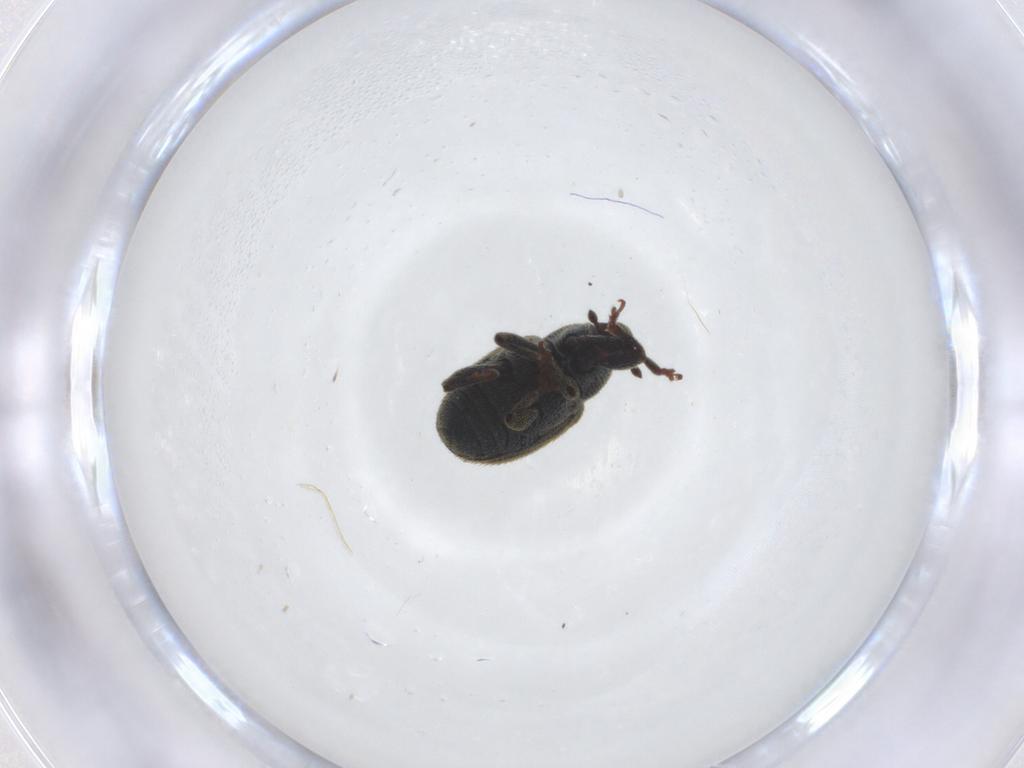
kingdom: Animalia
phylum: Arthropoda
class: Insecta
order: Coleoptera
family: Curculionidae
